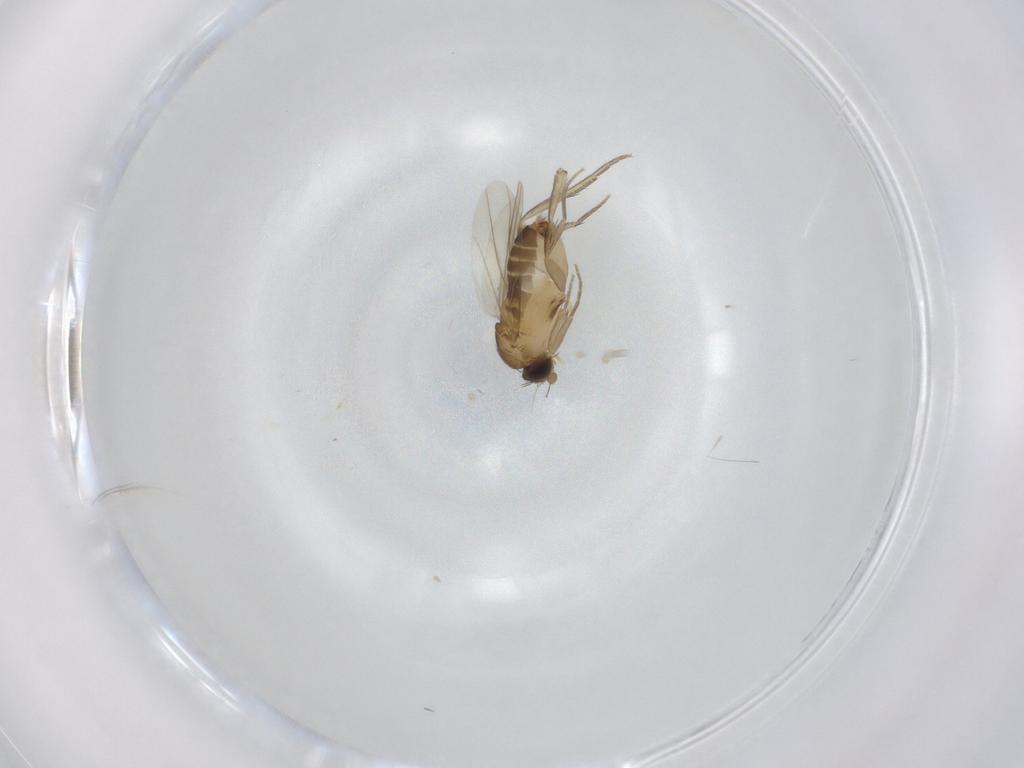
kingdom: Animalia
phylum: Arthropoda
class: Insecta
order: Diptera
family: Phoridae
